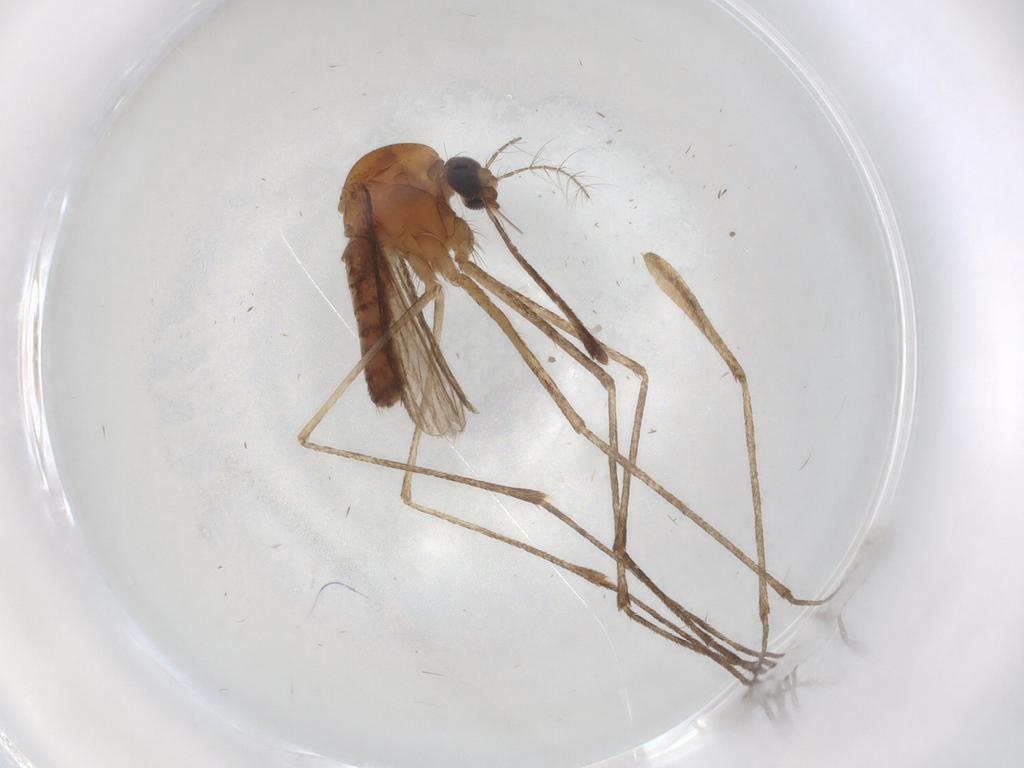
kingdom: Animalia
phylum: Arthropoda
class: Insecta
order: Diptera
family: Culicidae
